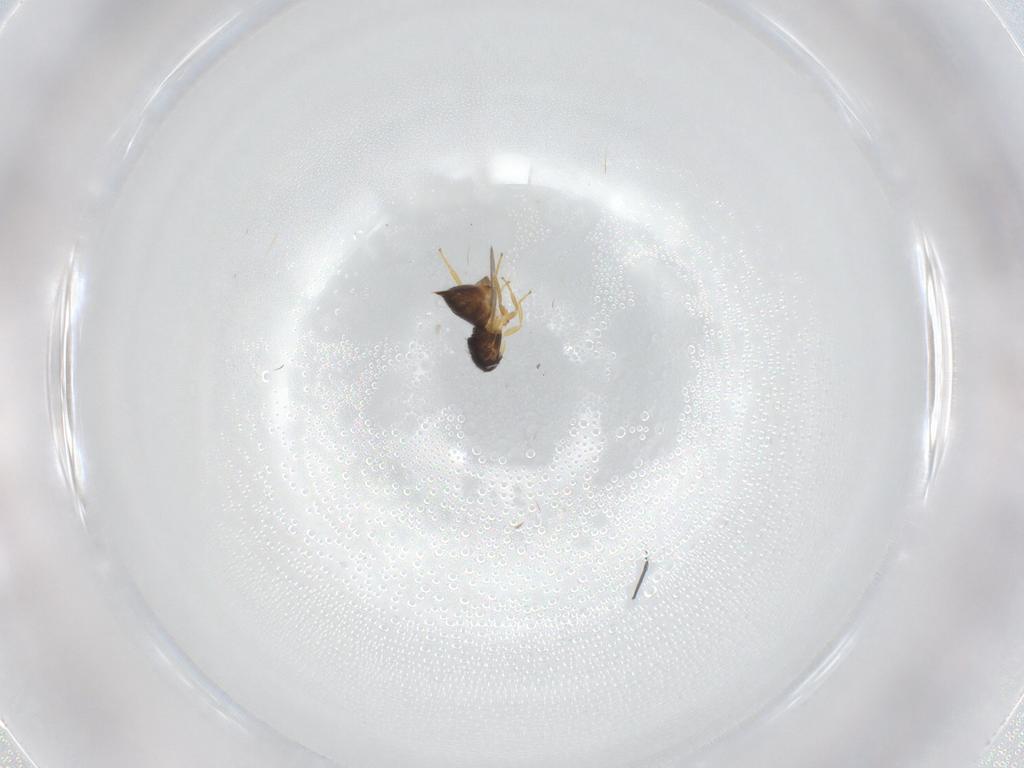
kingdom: Animalia
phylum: Arthropoda
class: Insecta
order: Hymenoptera
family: Eulophidae
